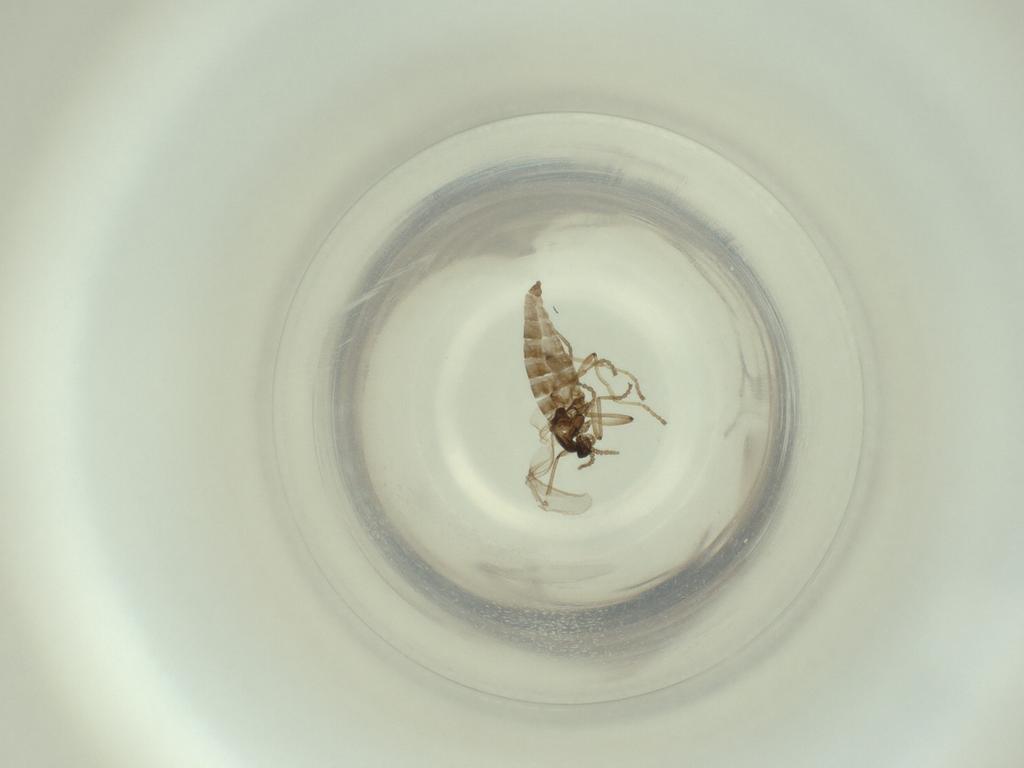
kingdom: Animalia
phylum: Arthropoda
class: Insecta
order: Diptera
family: Cecidomyiidae
